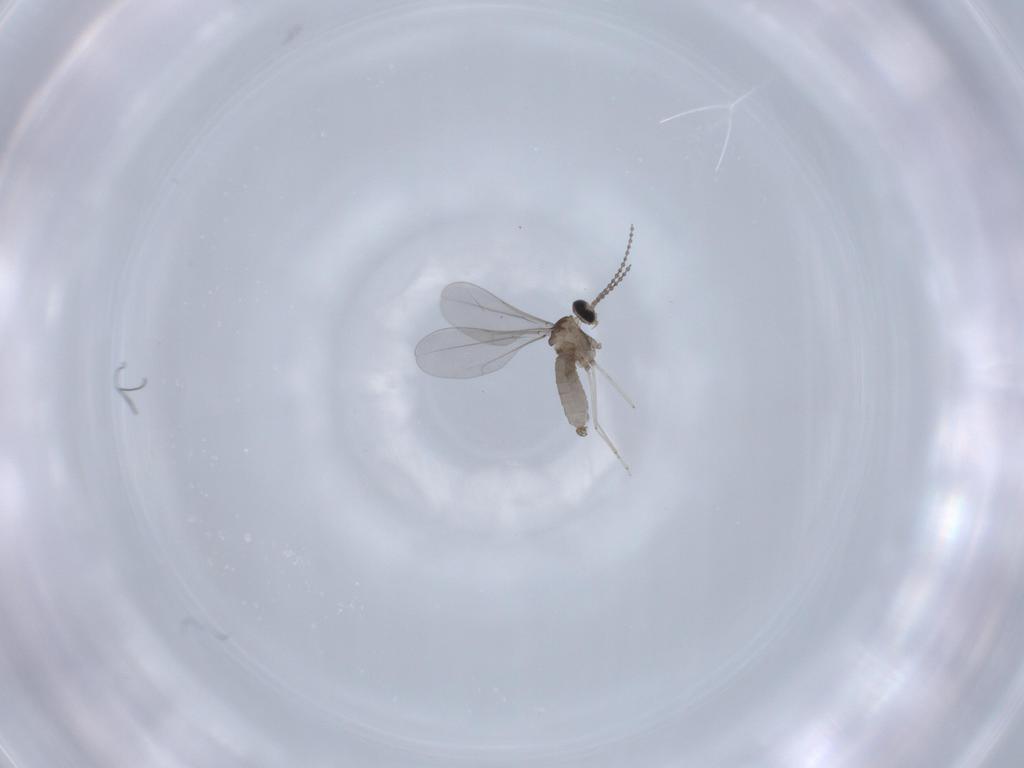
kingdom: Animalia
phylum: Arthropoda
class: Insecta
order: Diptera
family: Cecidomyiidae
